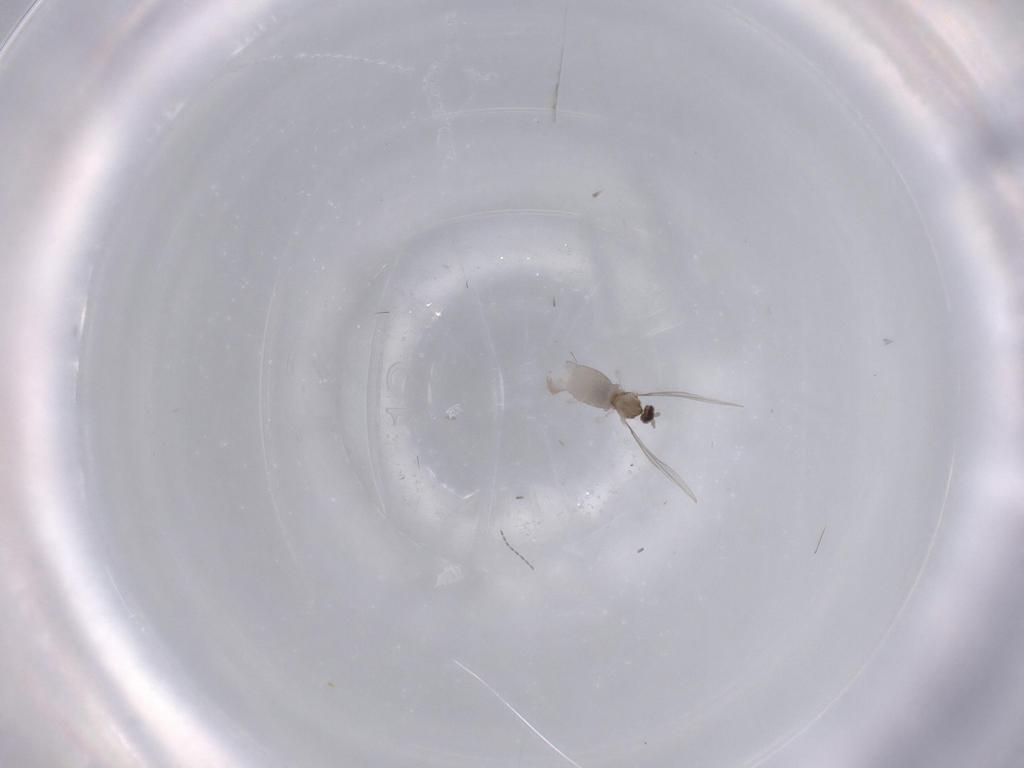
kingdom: Animalia
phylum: Arthropoda
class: Insecta
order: Diptera
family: Cecidomyiidae
